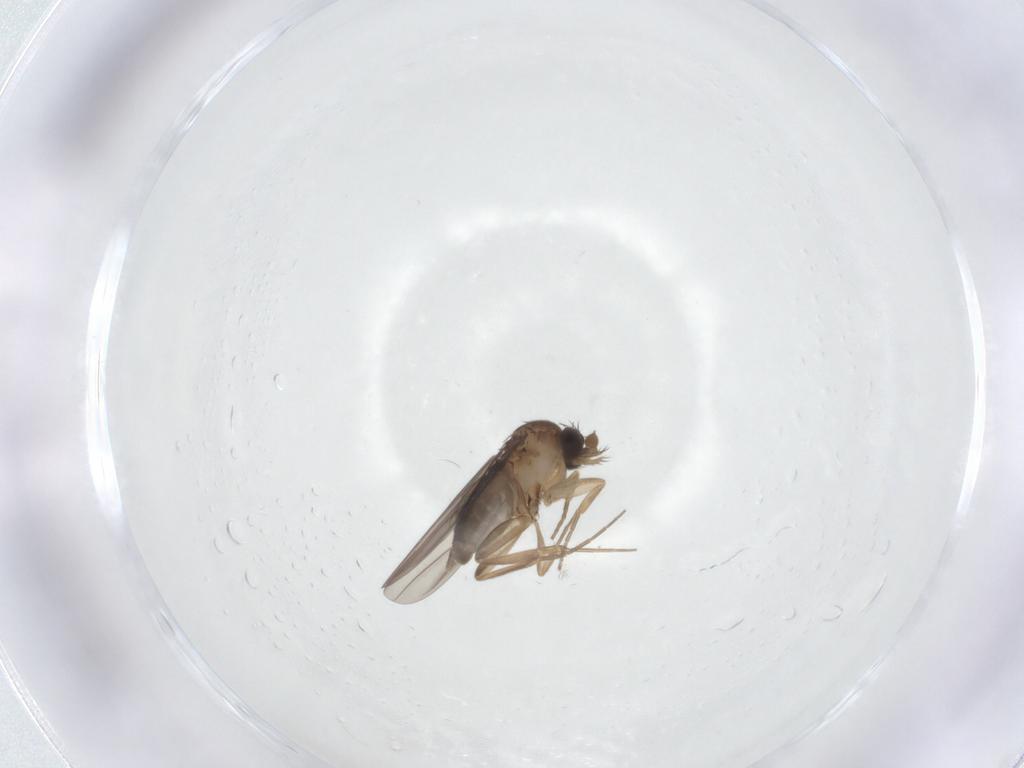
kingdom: Animalia
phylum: Arthropoda
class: Insecta
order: Diptera
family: Phoridae
